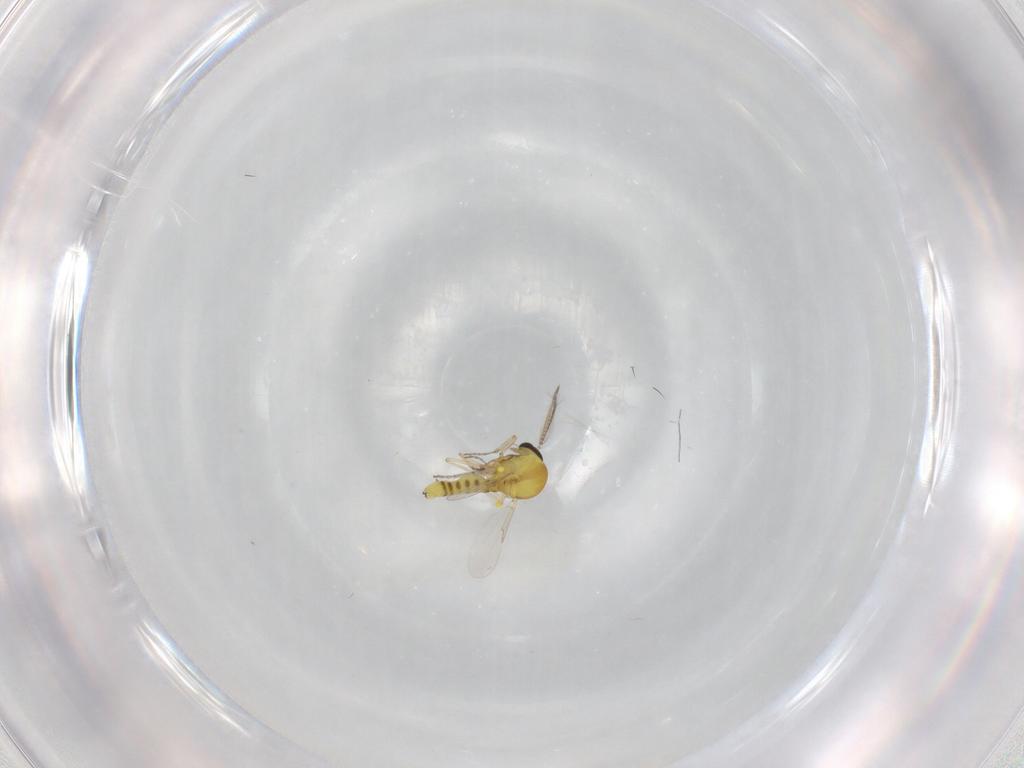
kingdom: Animalia
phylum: Arthropoda
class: Insecta
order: Diptera
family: Ceratopogonidae
